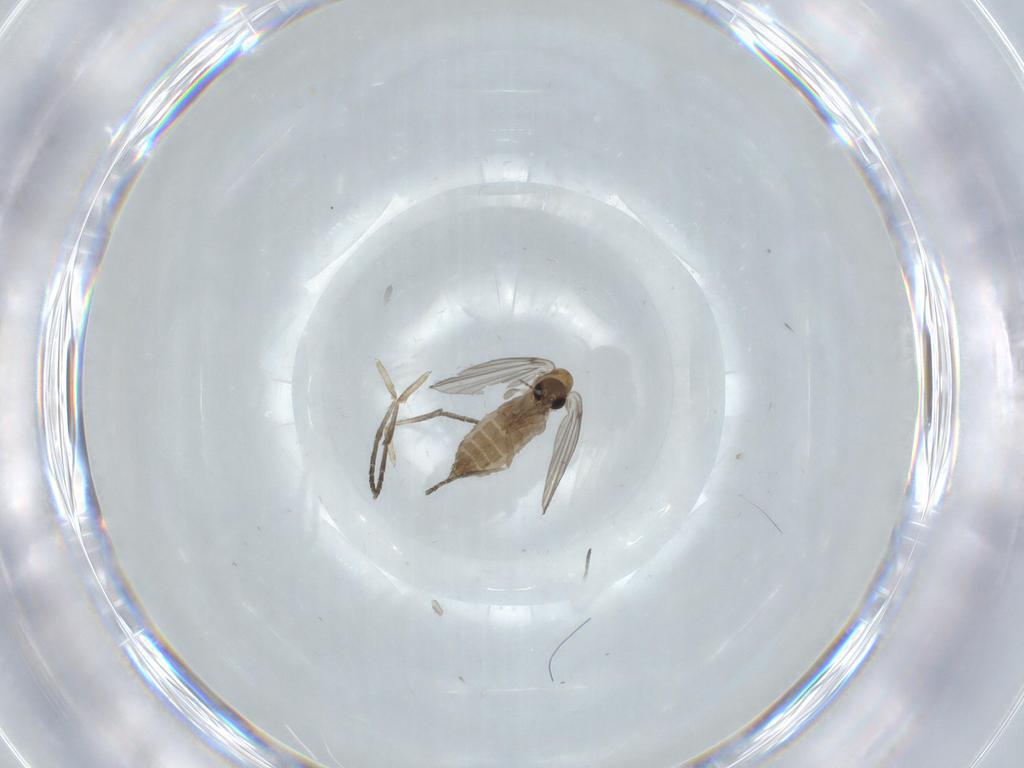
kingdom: Animalia
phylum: Arthropoda
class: Insecta
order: Diptera
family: Psychodidae
